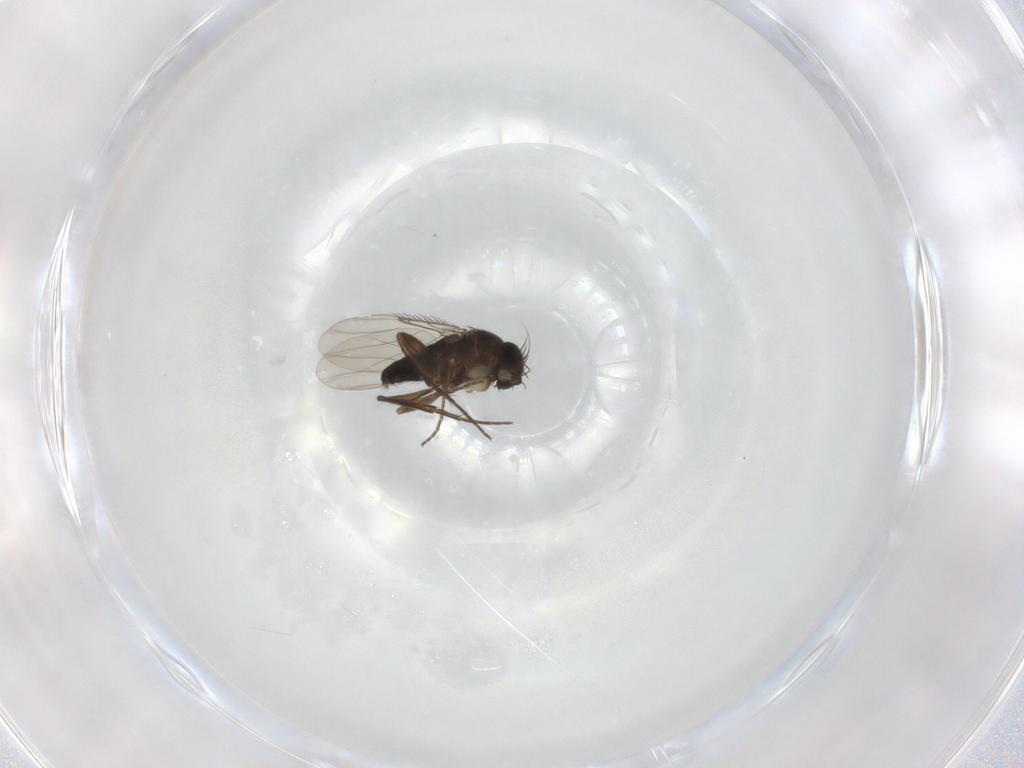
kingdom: Animalia
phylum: Arthropoda
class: Insecta
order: Diptera
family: Phoridae
